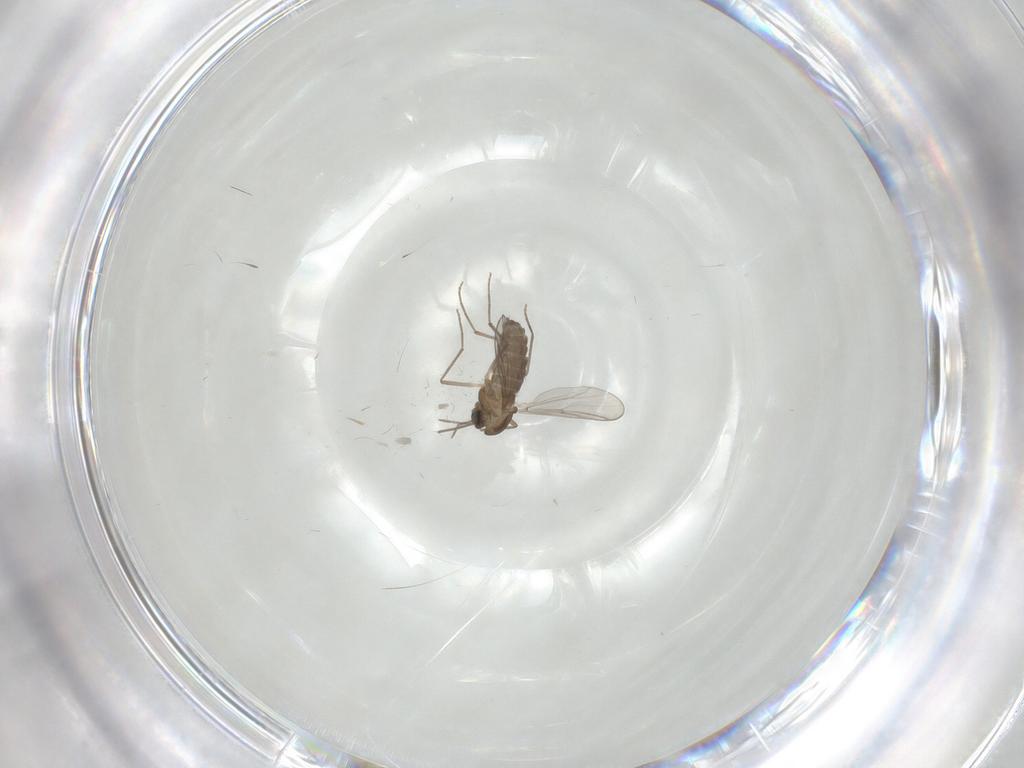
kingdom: Animalia
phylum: Arthropoda
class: Insecta
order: Diptera
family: Chironomidae
